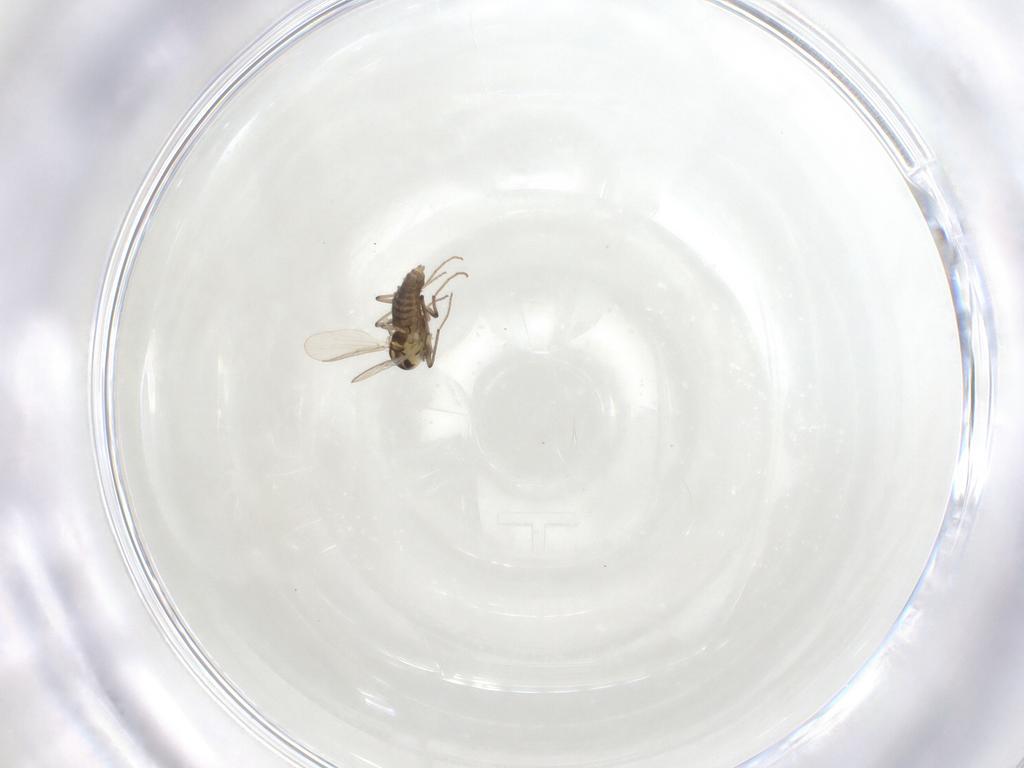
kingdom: Animalia
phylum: Arthropoda
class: Insecta
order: Diptera
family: Chironomidae
